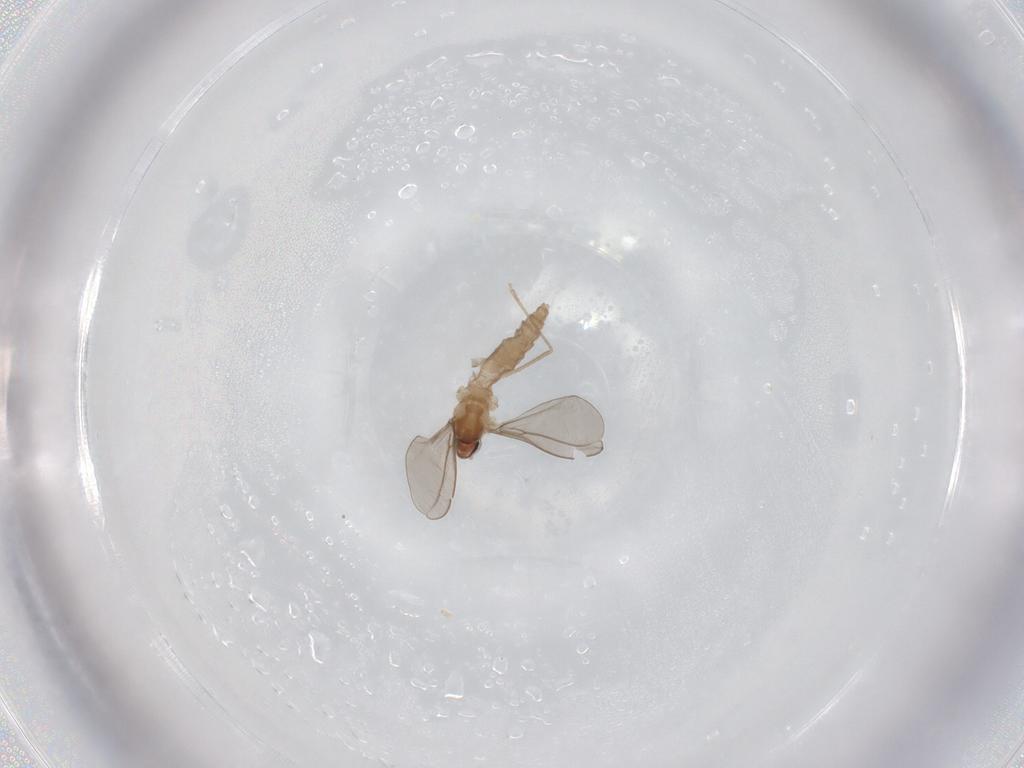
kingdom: Animalia
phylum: Arthropoda
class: Insecta
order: Diptera
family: Cecidomyiidae
